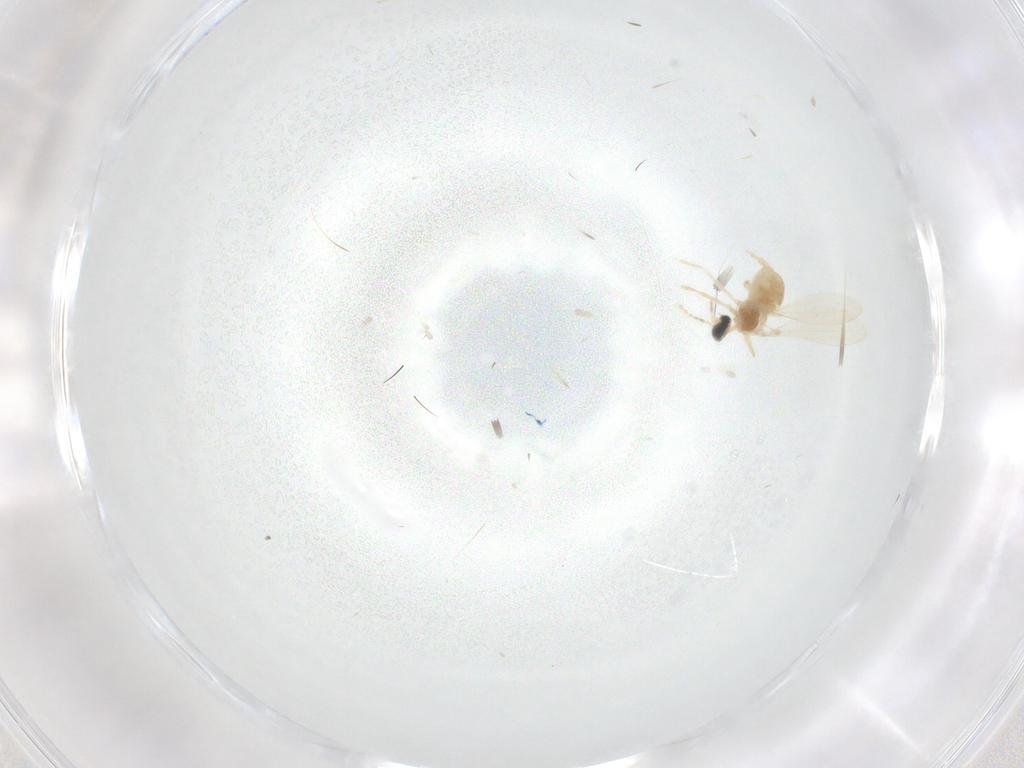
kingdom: Animalia
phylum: Arthropoda
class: Insecta
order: Diptera
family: Cecidomyiidae
